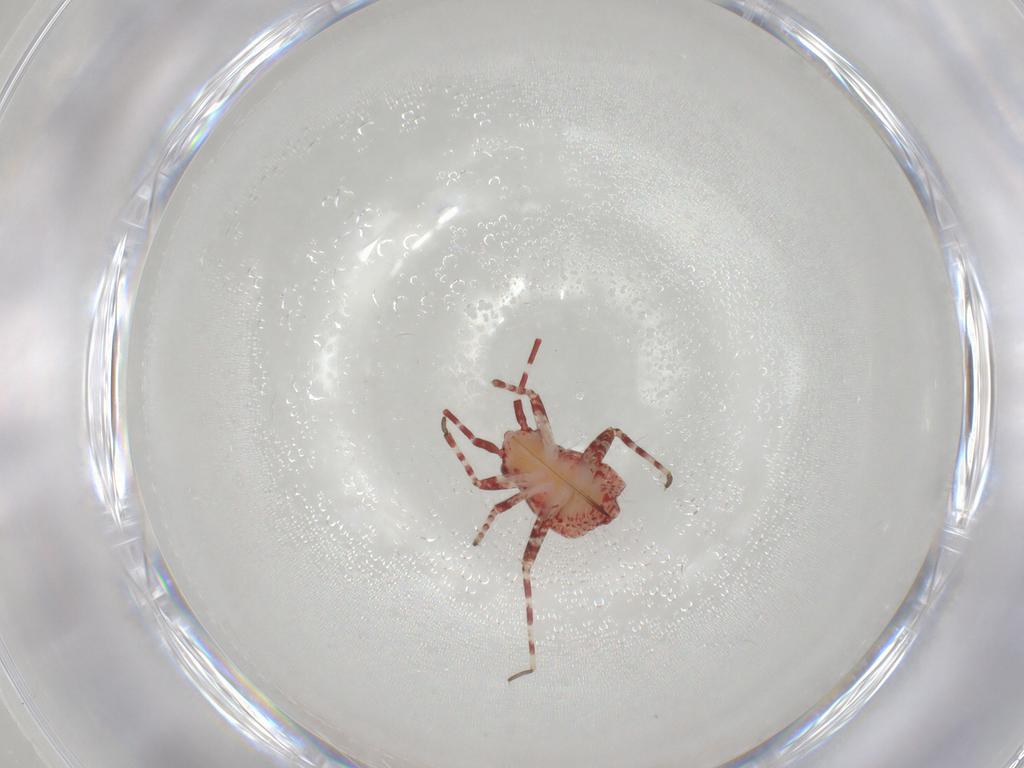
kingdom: Animalia
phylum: Arthropoda
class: Insecta
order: Hemiptera
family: Miridae
